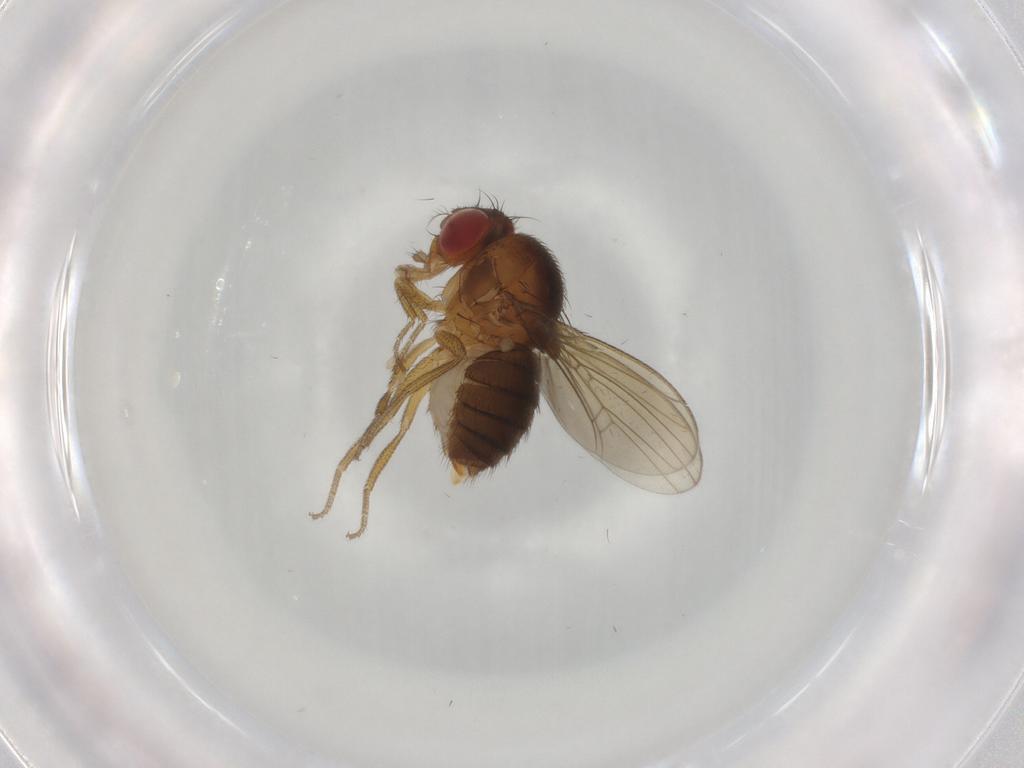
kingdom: Animalia
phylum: Arthropoda
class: Insecta
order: Diptera
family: Drosophilidae
